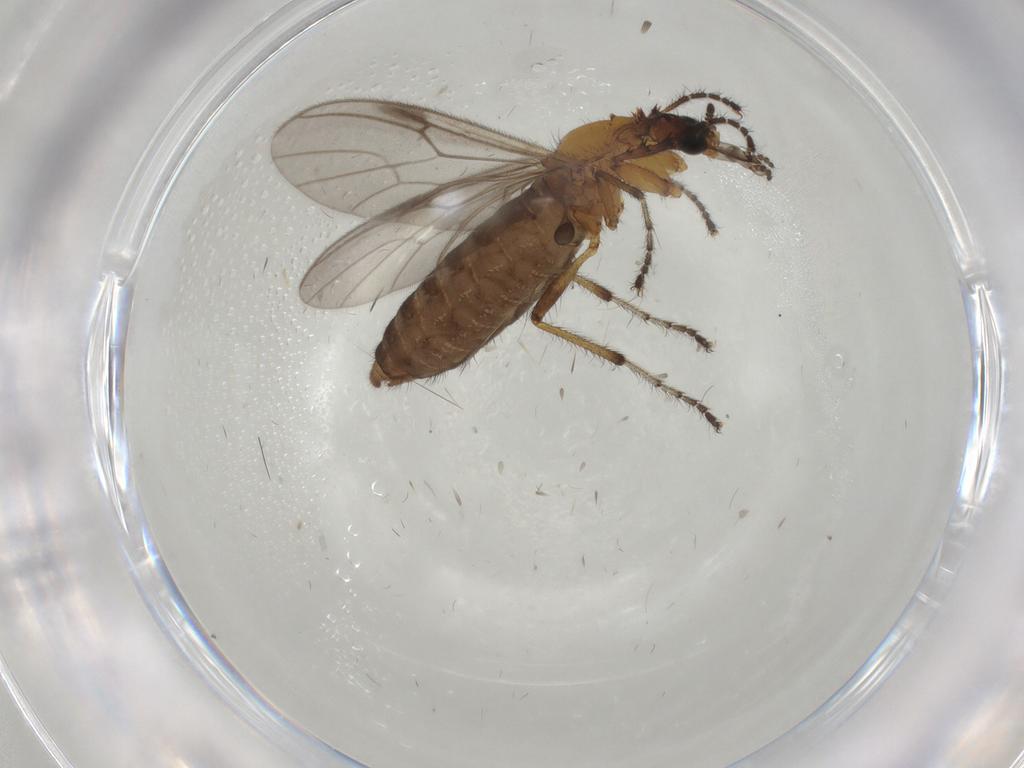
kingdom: Animalia
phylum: Arthropoda
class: Insecta
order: Diptera
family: Bibionidae
